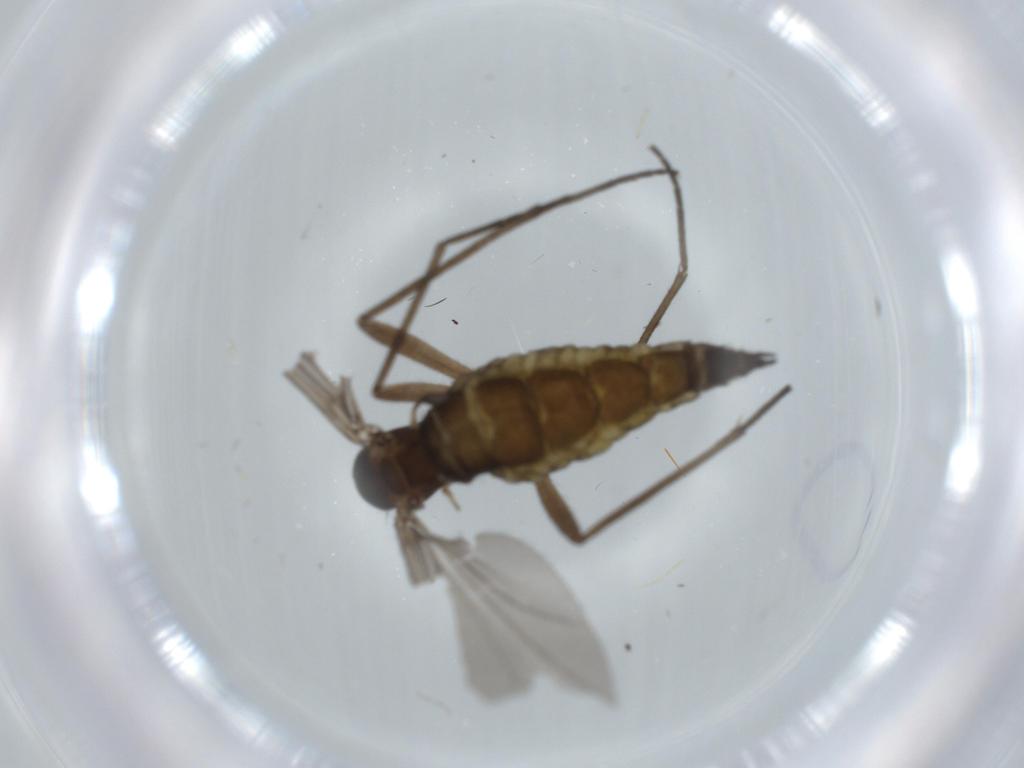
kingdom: Animalia
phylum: Arthropoda
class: Insecta
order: Diptera
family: Sciaridae
